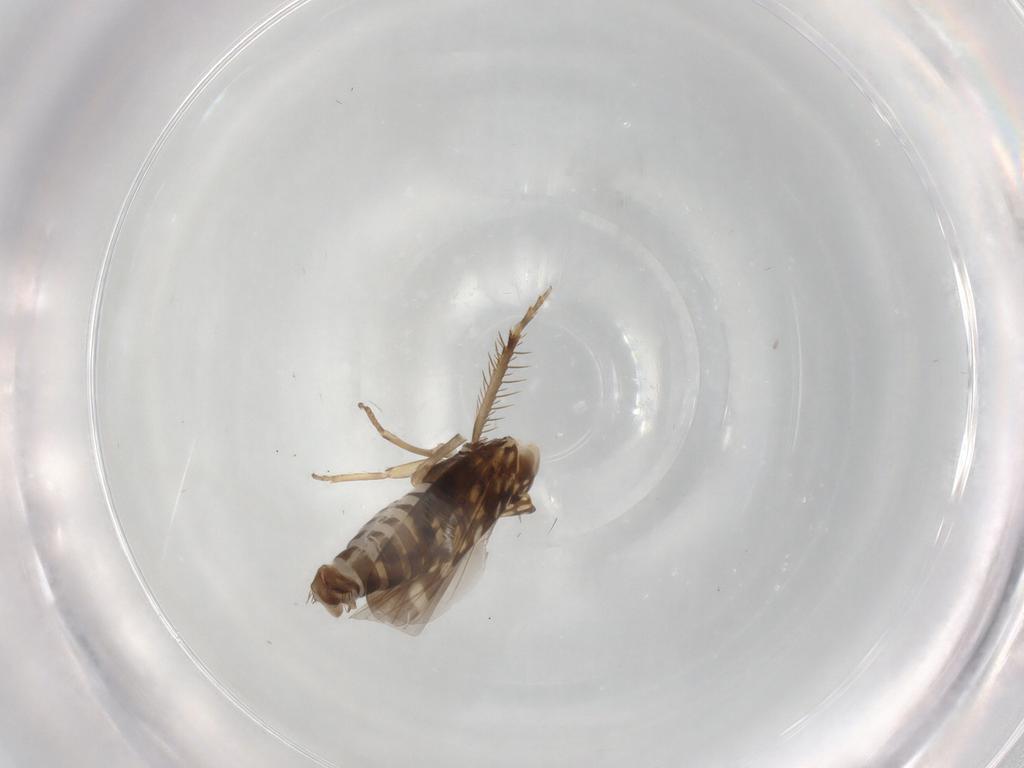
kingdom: Animalia
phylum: Arthropoda
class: Insecta
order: Hemiptera
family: Cicadellidae
